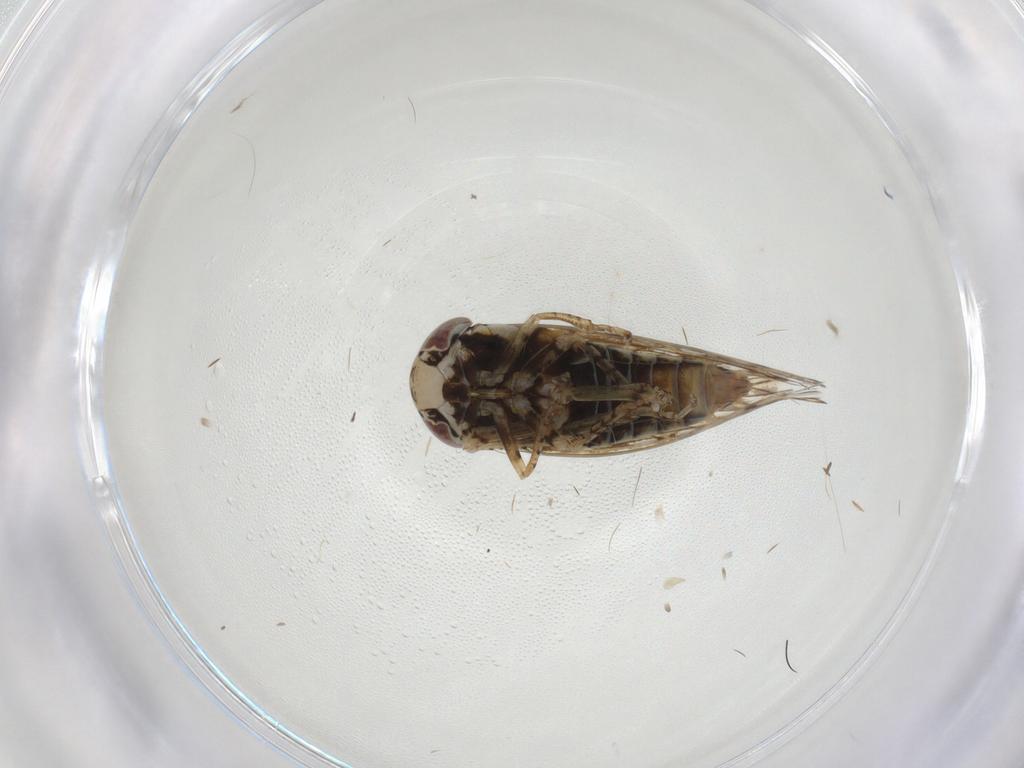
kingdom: Animalia
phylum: Arthropoda
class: Insecta
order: Hemiptera
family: Cicadellidae
